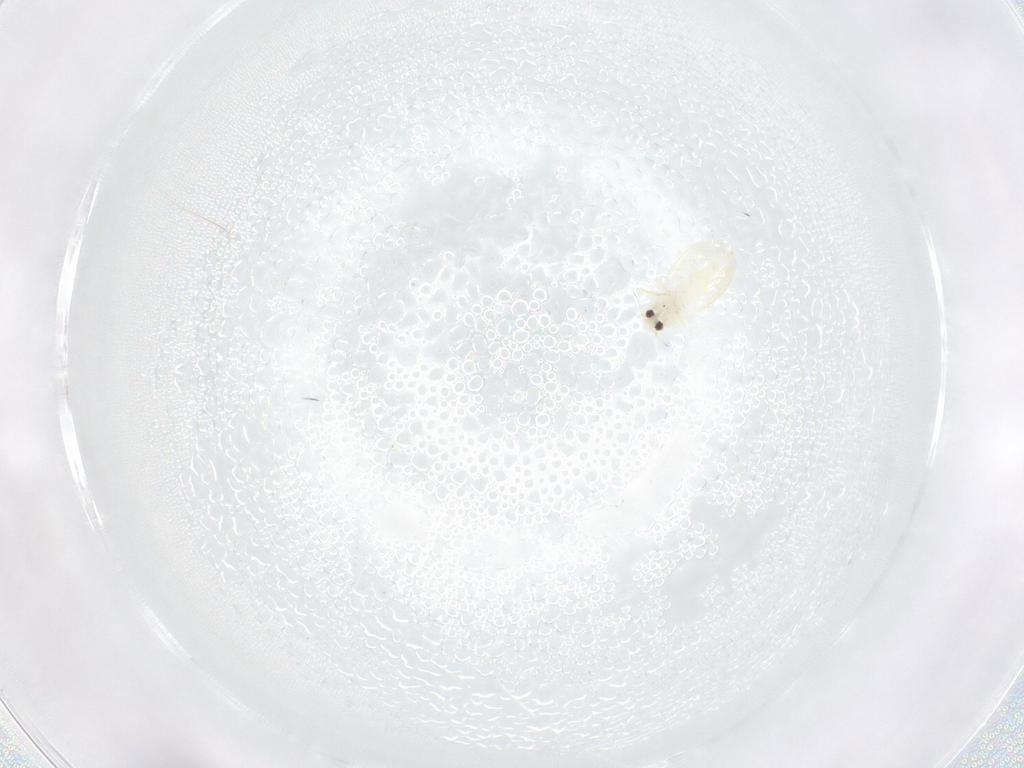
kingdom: Animalia
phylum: Arthropoda
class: Insecta
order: Hemiptera
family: Aleyrodidae
